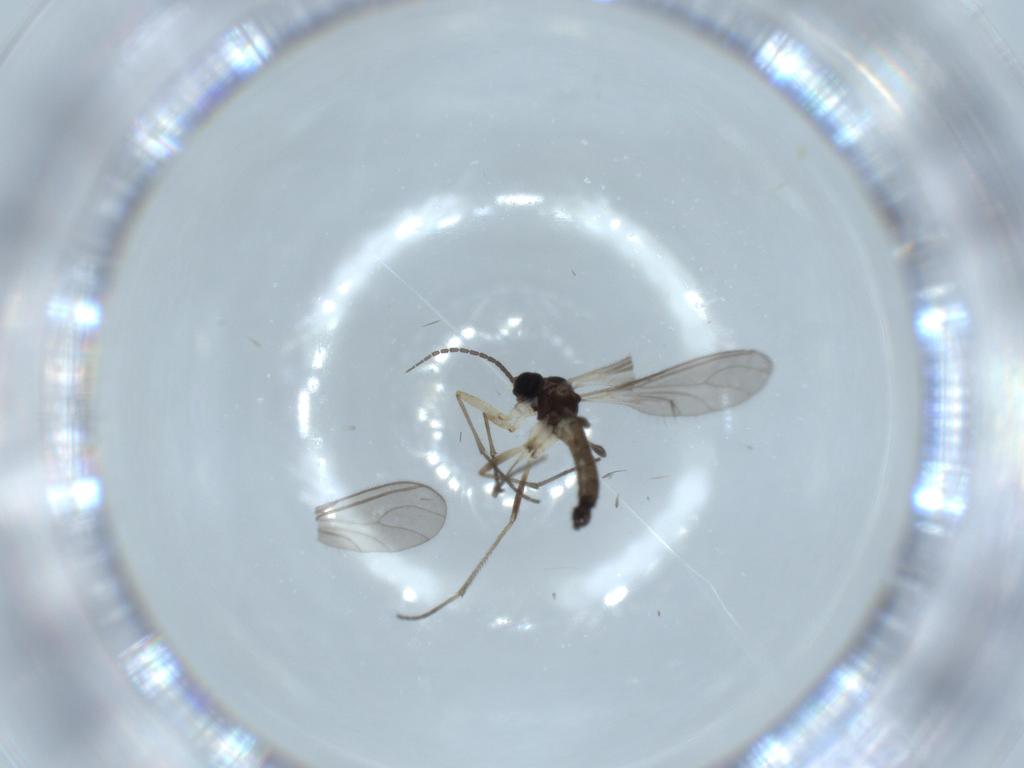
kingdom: Animalia
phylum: Arthropoda
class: Insecta
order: Diptera
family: Sciaridae
